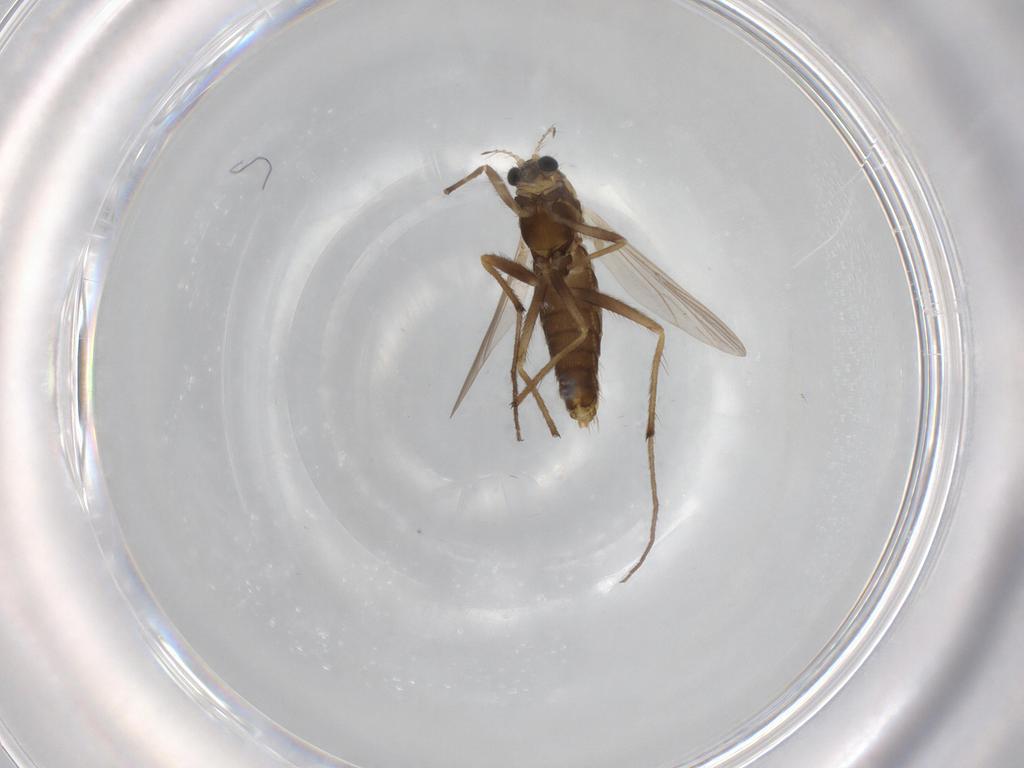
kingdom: Animalia
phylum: Arthropoda
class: Insecta
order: Diptera
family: Chironomidae
